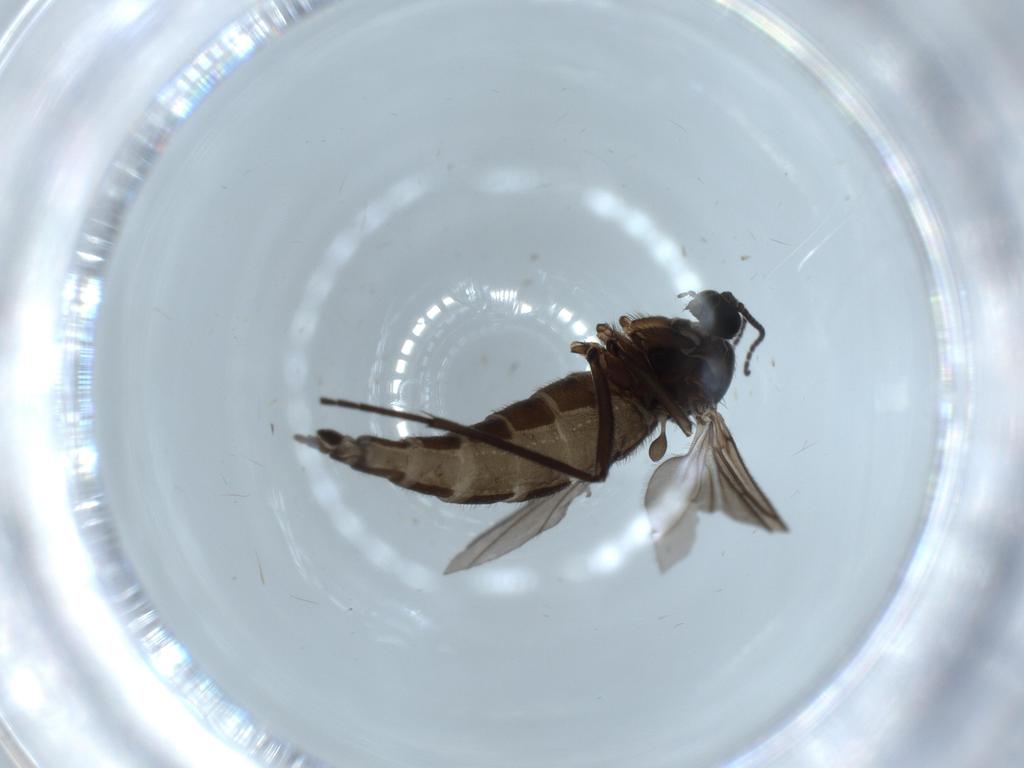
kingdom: Animalia
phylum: Arthropoda
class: Insecta
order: Diptera
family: Sciaridae
